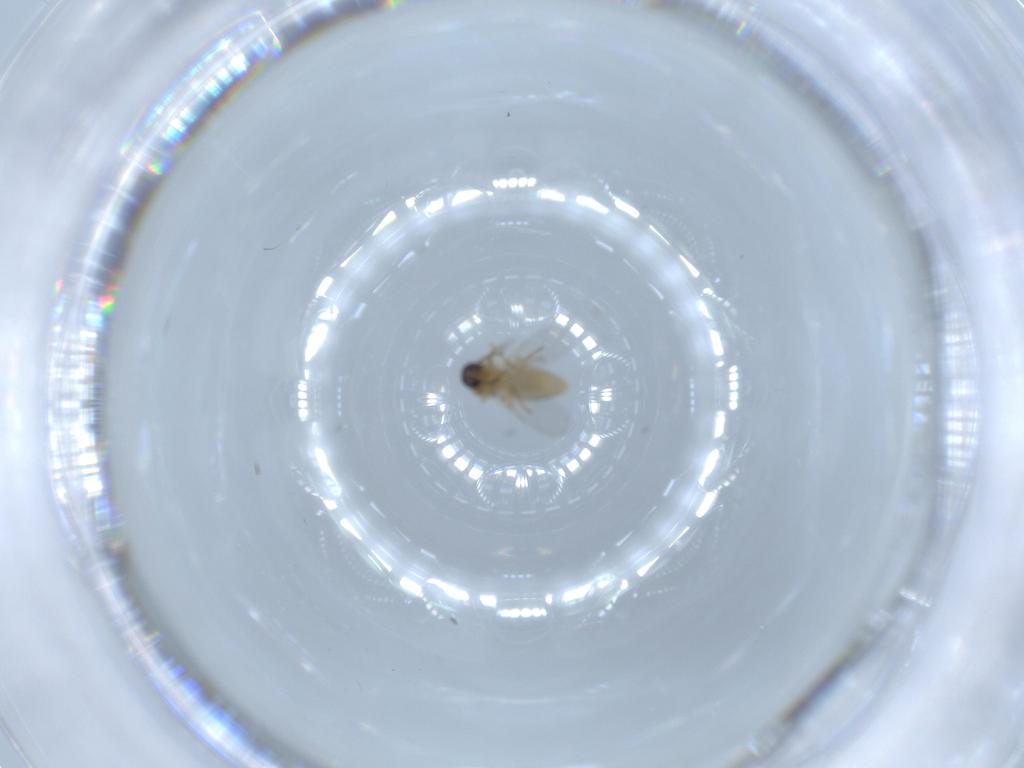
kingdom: Animalia
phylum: Arthropoda
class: Insecta
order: Diptera
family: Ceratopogonidae
